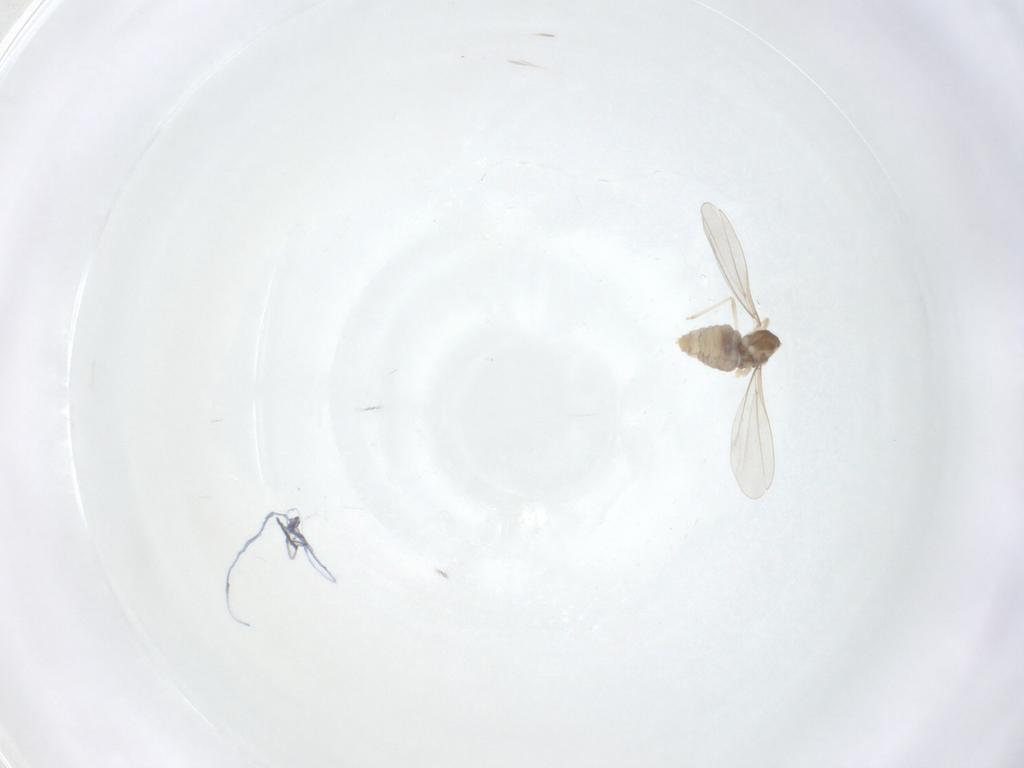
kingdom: Animalia
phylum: Arthropoda
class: Insecta
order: Diptera
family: Cecidomyiidae
